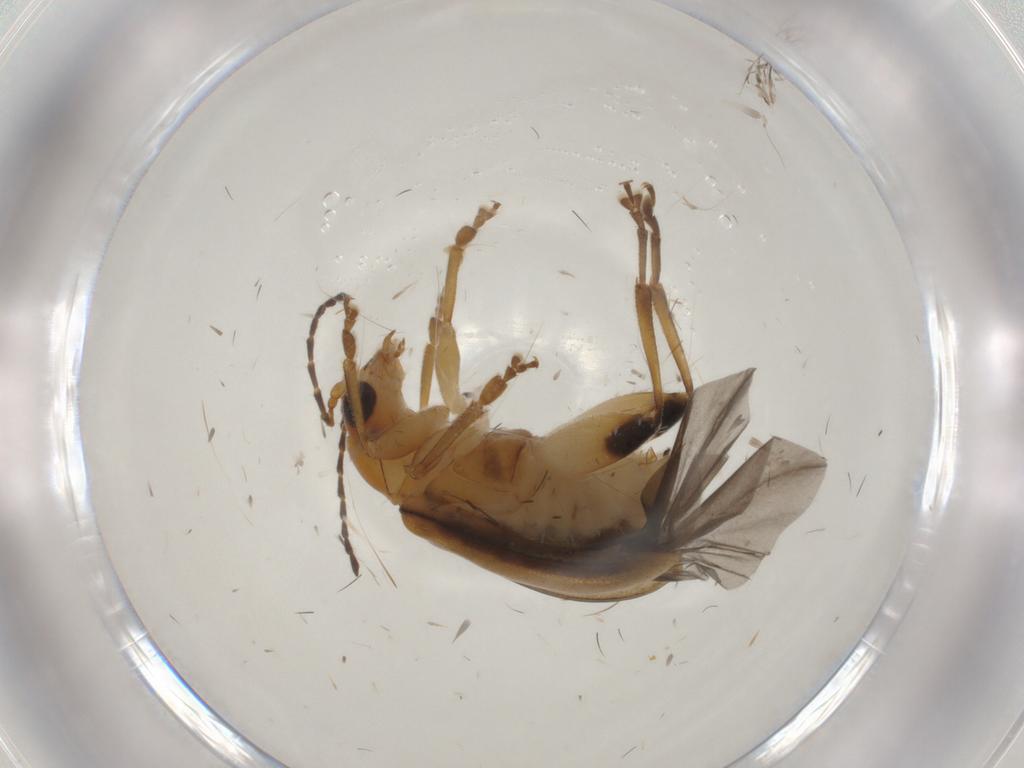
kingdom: Animalia
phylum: Arthropoda
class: Insecta
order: Coleoptera
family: Chrysomelidae
